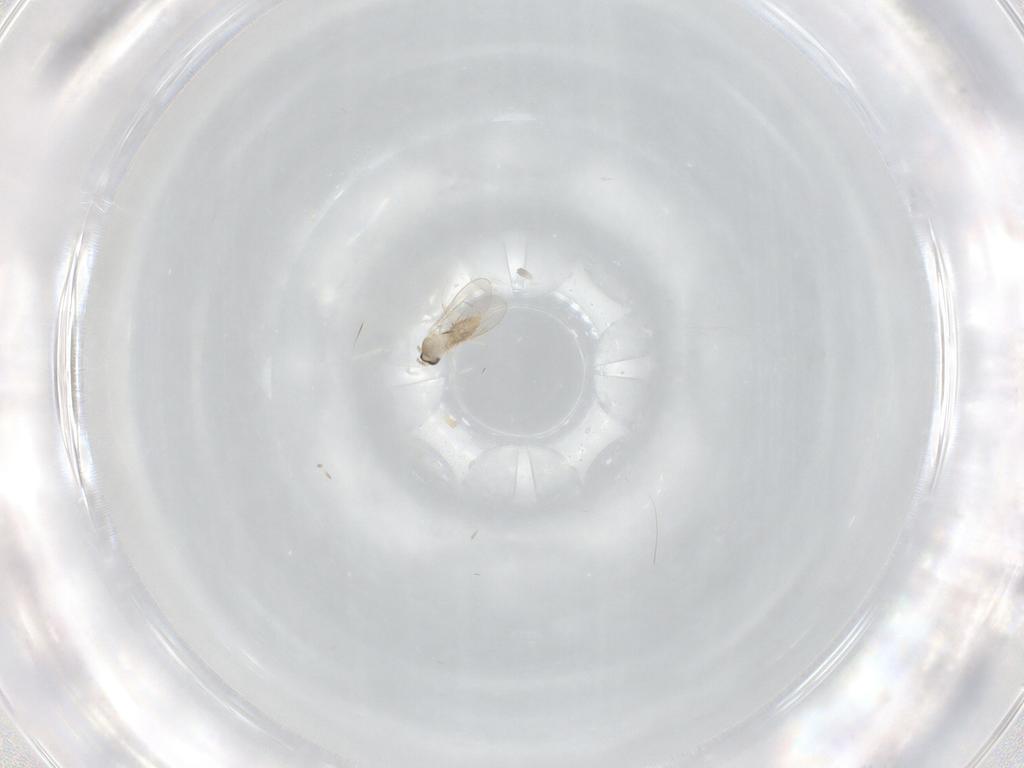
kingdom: Animalia
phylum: Arthropoda
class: Insecta
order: Diptera
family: Cecidomyiidae
